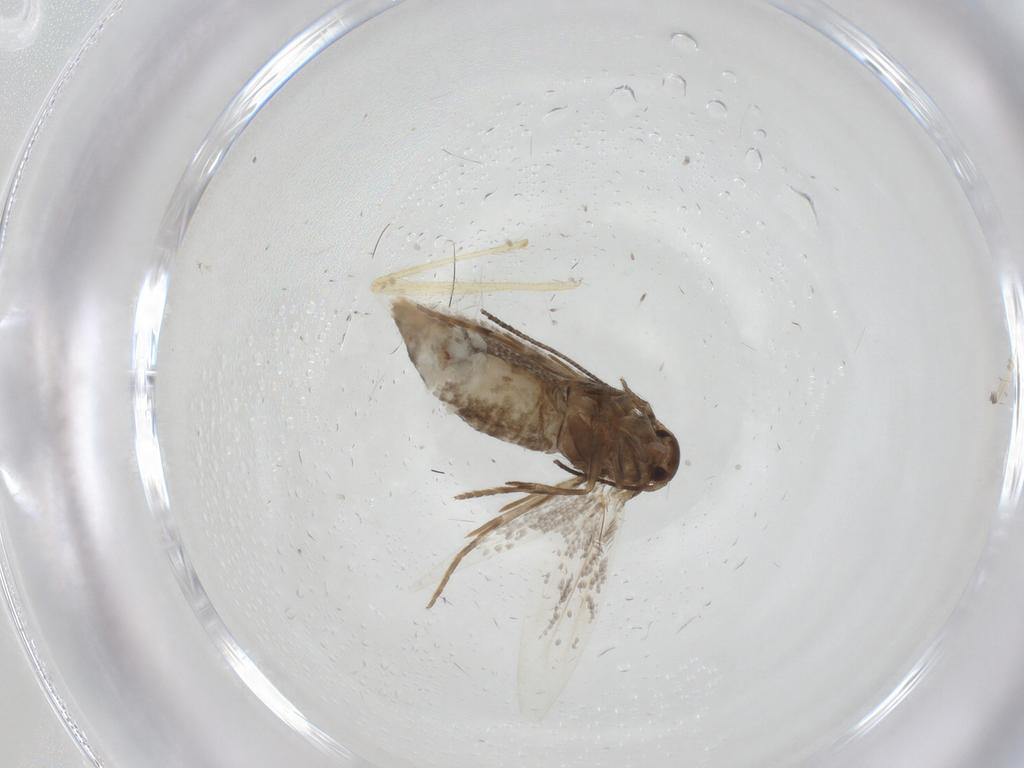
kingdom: Animalia
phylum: Arthropoda
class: Insecta
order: Lepidoptera
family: Elachistidae
